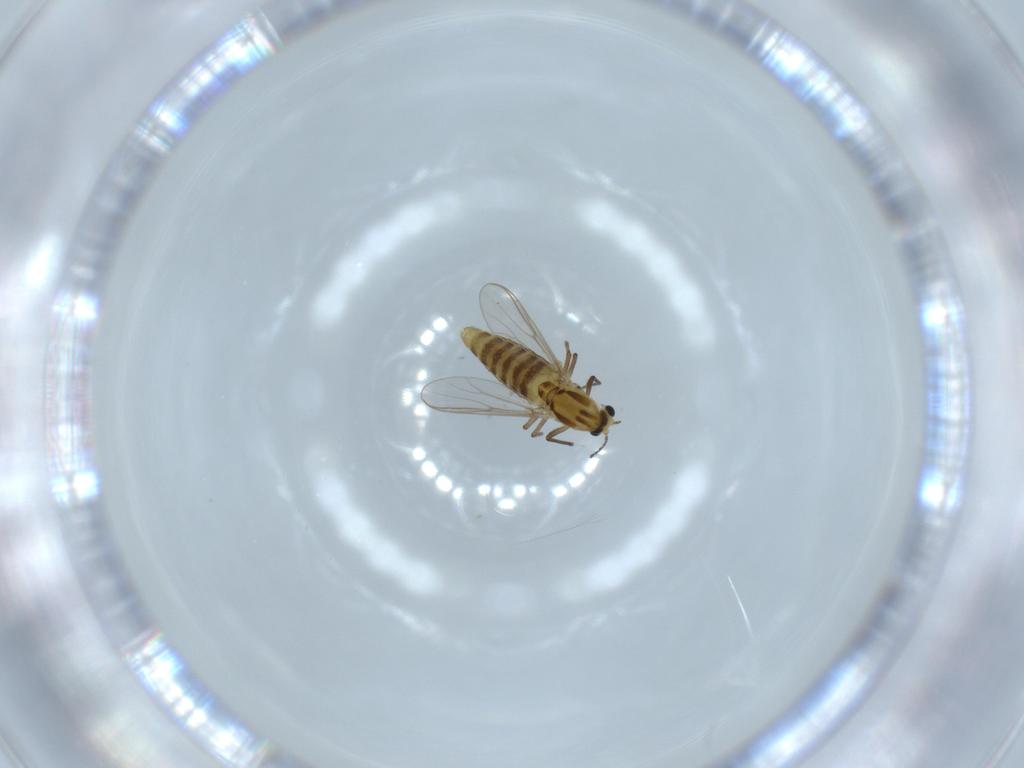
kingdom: Animalia
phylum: Arthropoda
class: Insecta
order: Diptera
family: Chironomidae
